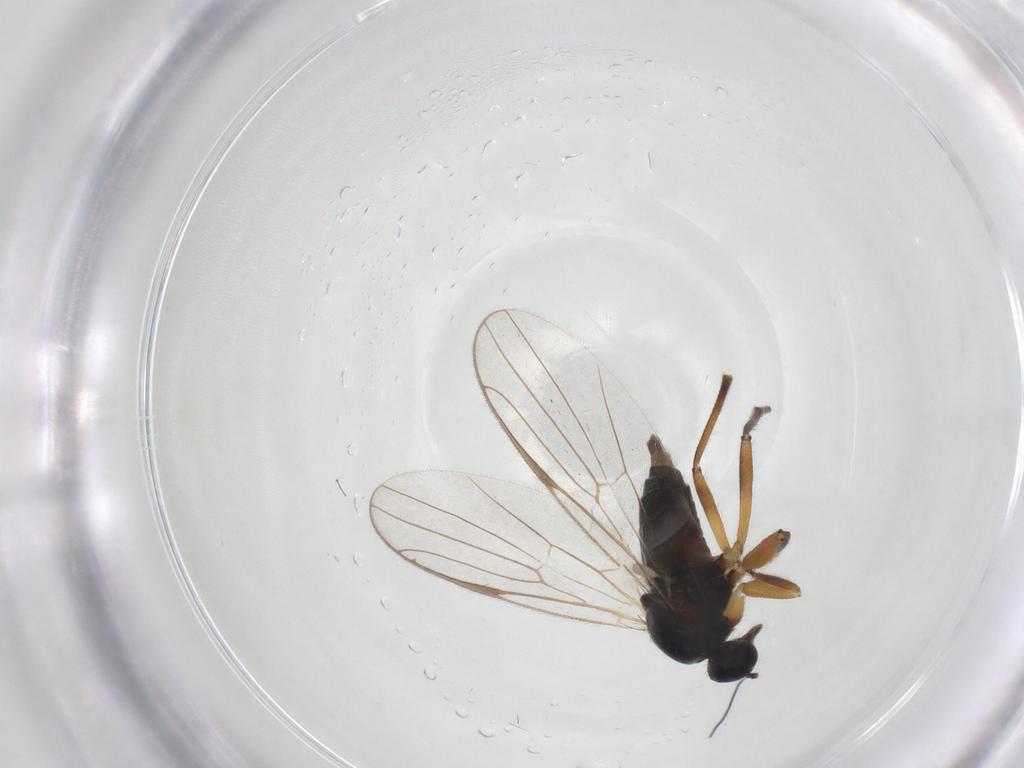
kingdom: Animalia
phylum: Arthropoda
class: Insecta
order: Diptera
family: Hybotidae
